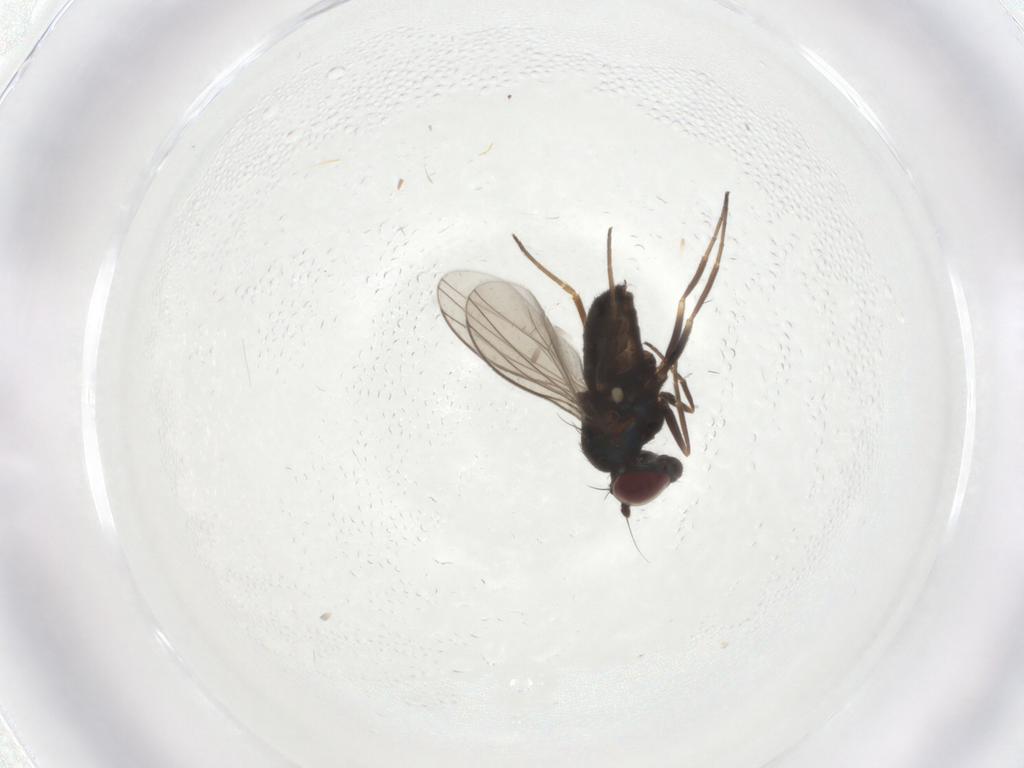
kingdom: Animalia
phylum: Arthropoda
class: Insecta
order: Diptera
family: Dolichopodidae
